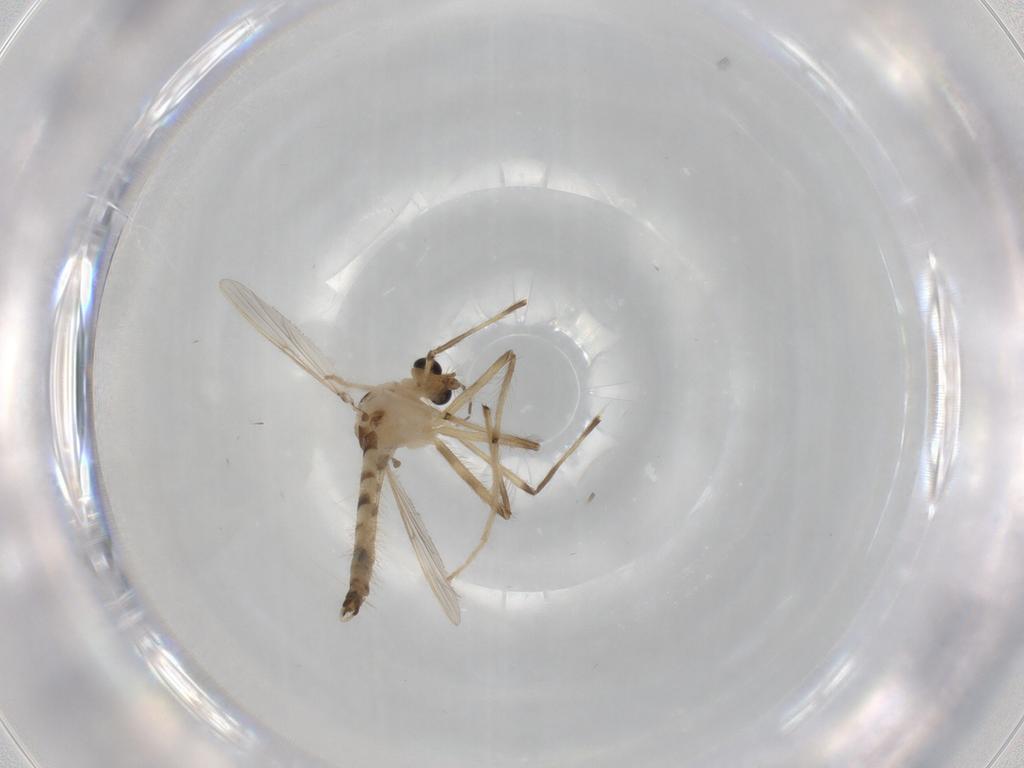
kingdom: Animalia
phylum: Arthropoda
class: Insecta
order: Diptera
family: Chironomidae
